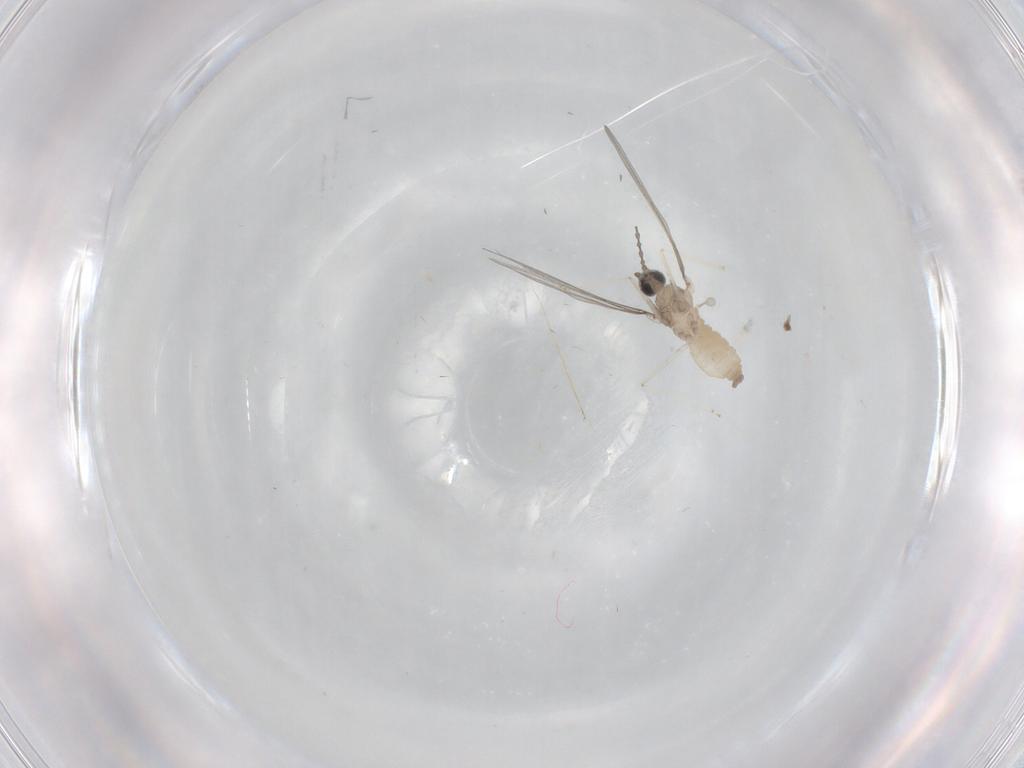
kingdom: Animalia
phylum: Arthropoda
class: Insecta
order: Diptera
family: Cecidomyiidae
